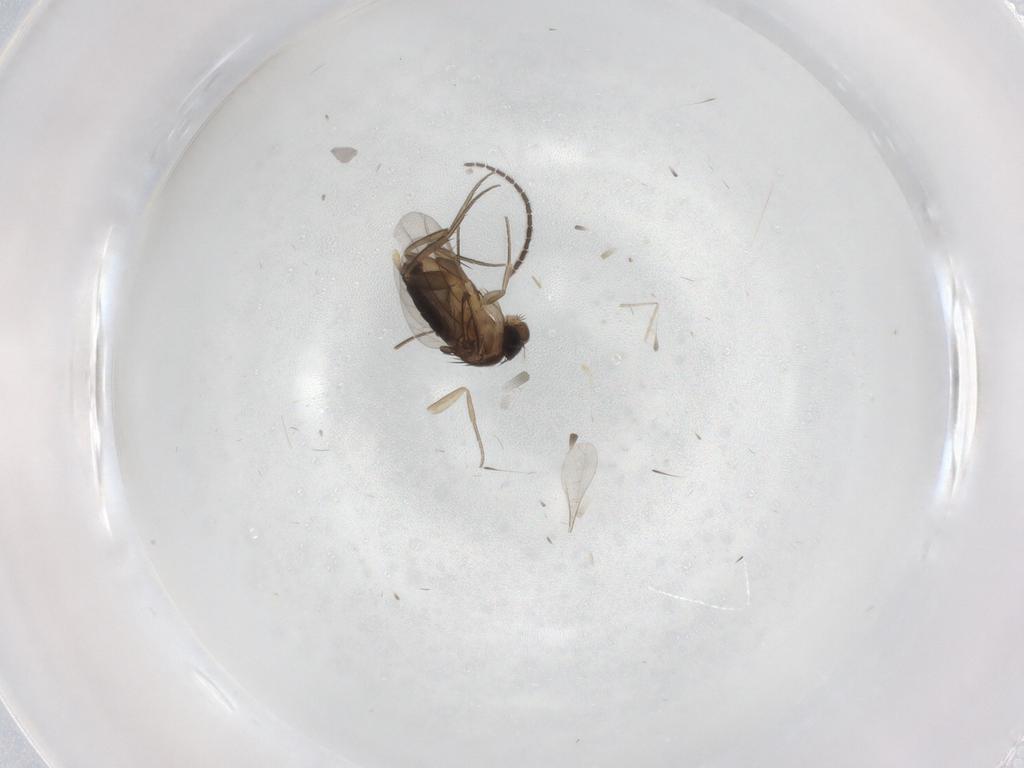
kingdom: Animalia
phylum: Arthropoda
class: Insecta
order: Diptera
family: Phoridae
